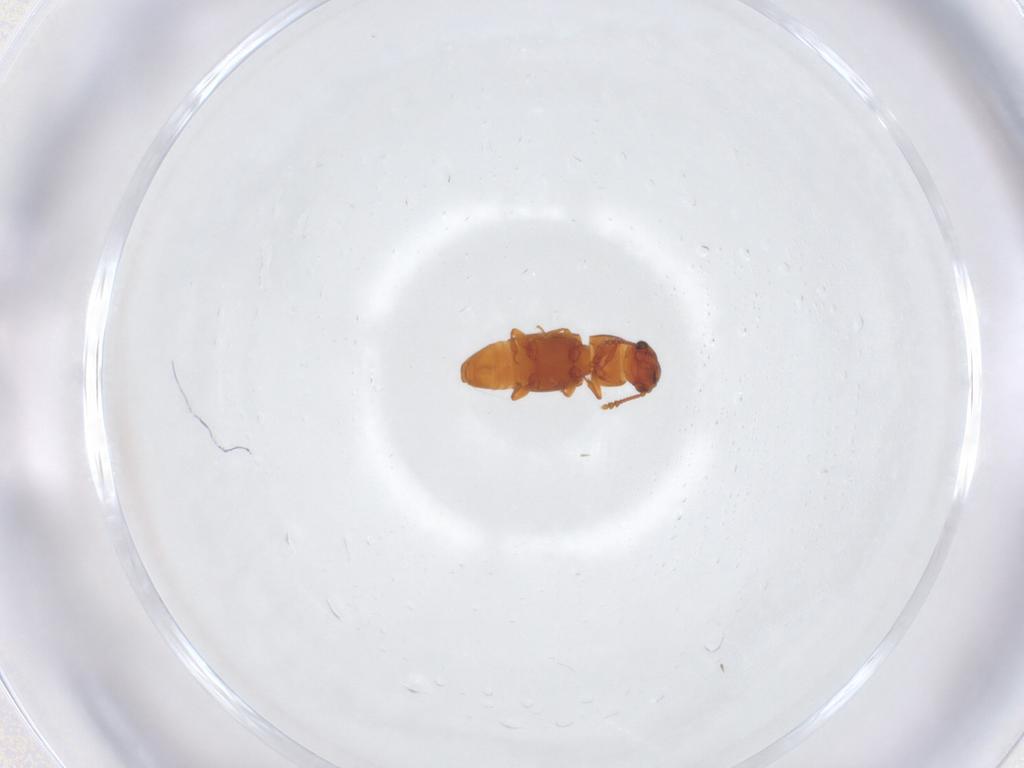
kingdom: Animalia
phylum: Arthropoda
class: Insecta
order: Coleoptera
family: Smicripidae
